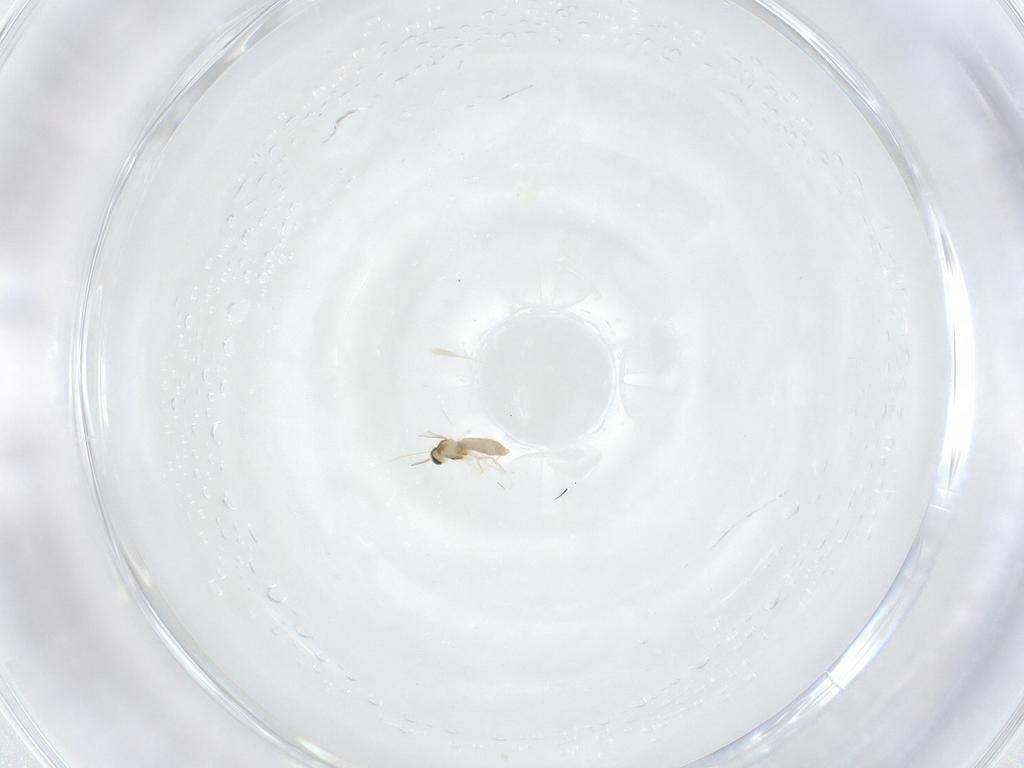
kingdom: Animalia
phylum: Arthropoda
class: Insecta
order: Diptera
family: Cecidomyiidae
